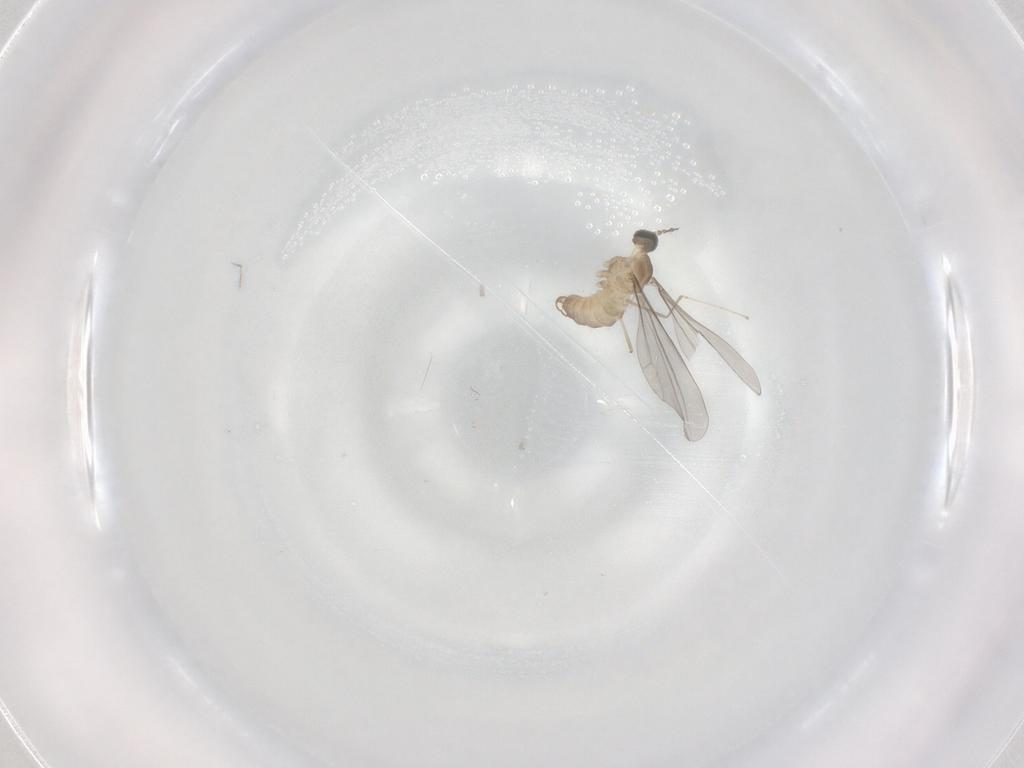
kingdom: Animalia
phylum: Arthropoda
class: Insecta
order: Diptera
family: Cecidomyiidae
